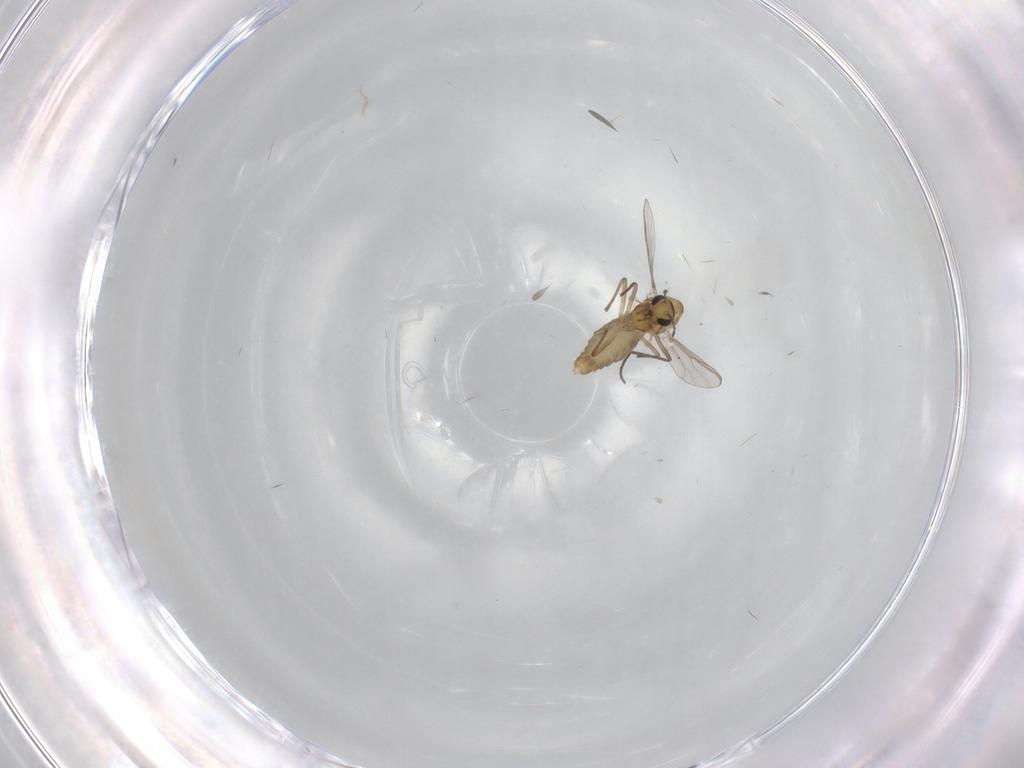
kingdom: Animalia
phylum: Arthropoda
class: Insecta
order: Diptera
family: Chironomidae
